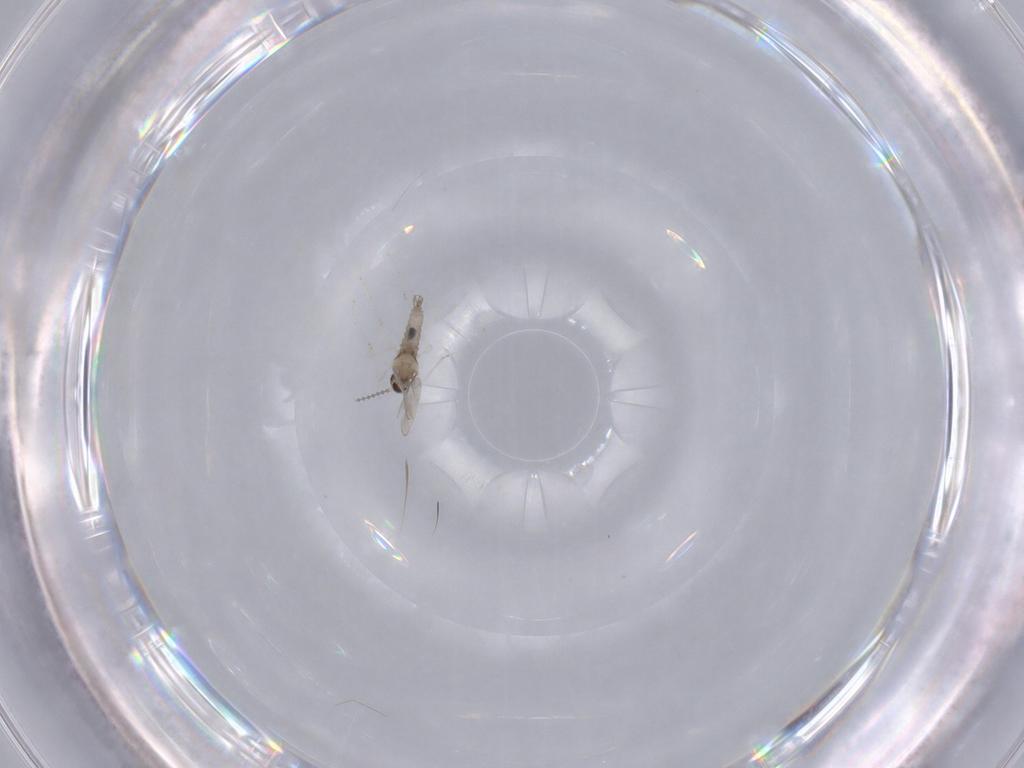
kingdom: Animalia
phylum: Arthropoda
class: Insecta
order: Diptera
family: Cecidomyiidae
